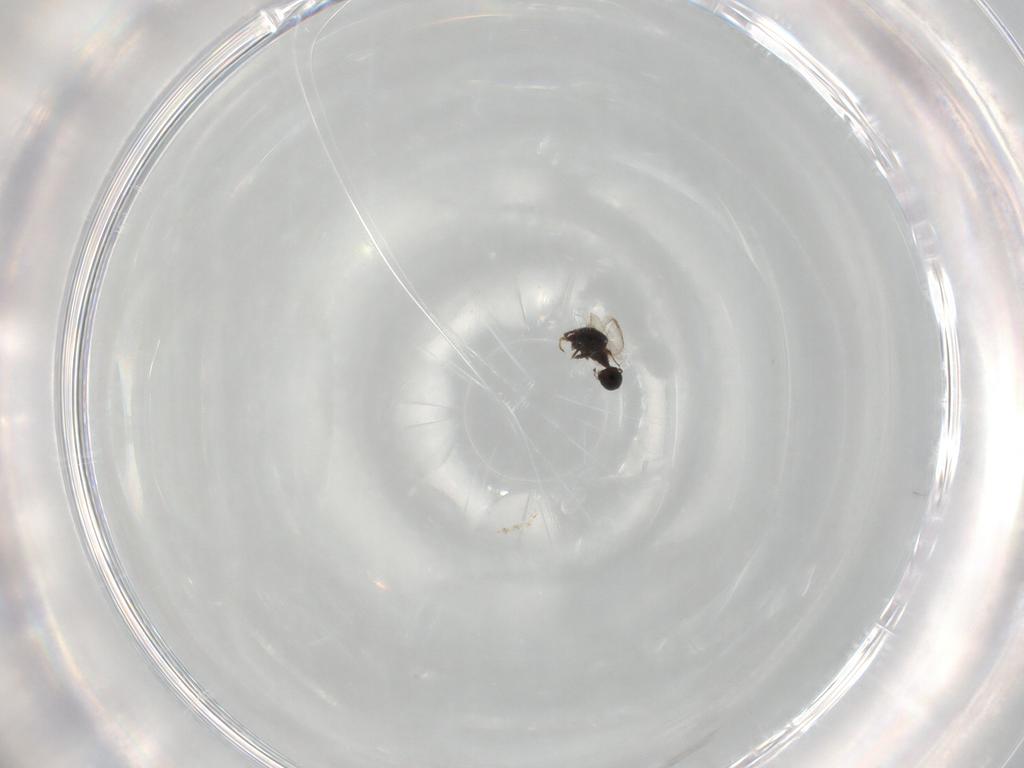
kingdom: Animalia
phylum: Arthropoda
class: Insecta
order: Hymenoptera
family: Scelionidae
